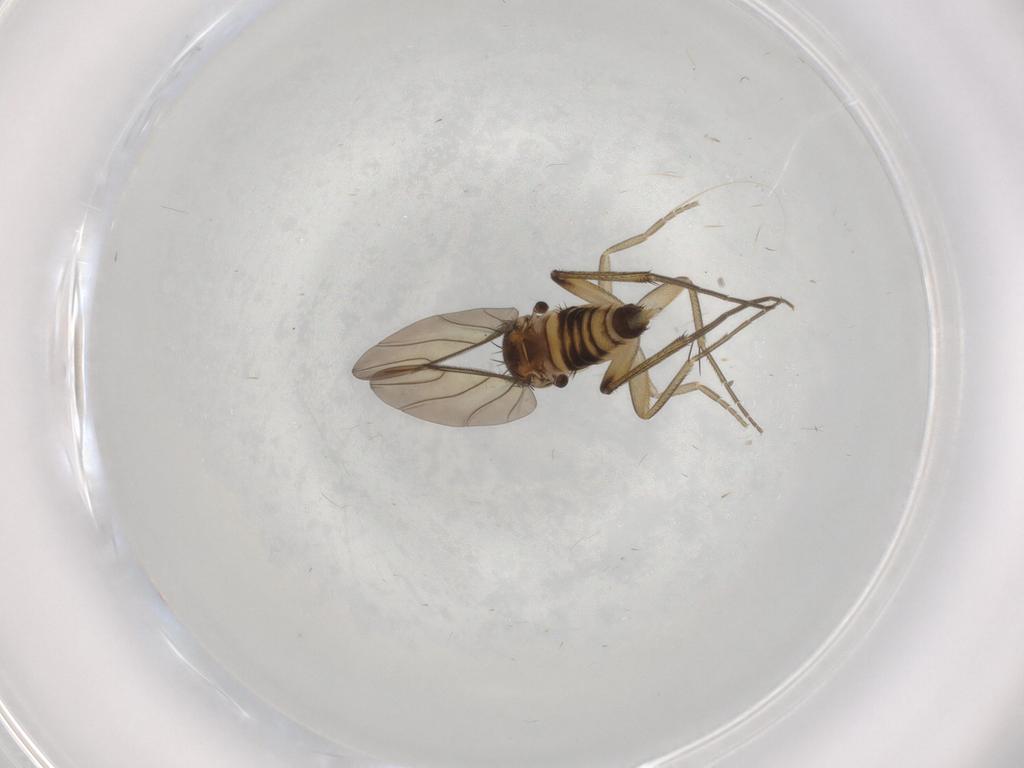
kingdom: Animalia
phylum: Arthropoda
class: Insecta
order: Diptera
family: Phoridae
